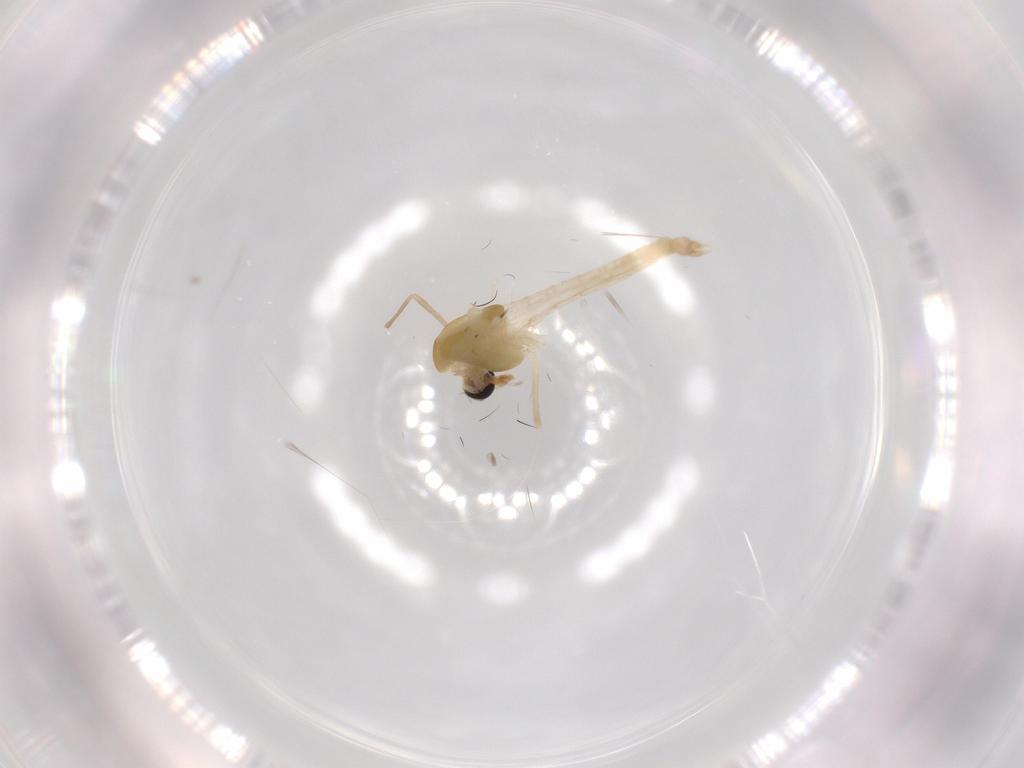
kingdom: Animalia
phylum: Arthropoda
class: Insecta
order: Diptera
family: Chironomidae
